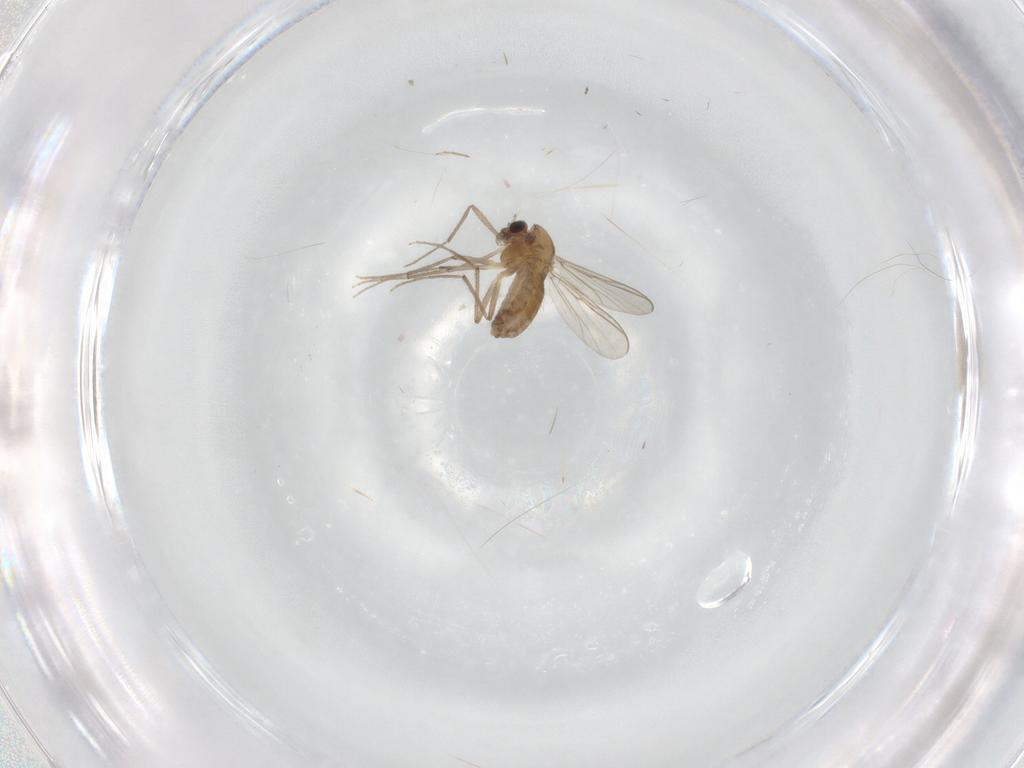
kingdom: Animalia
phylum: Arthropoda
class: Insecta
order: Diptera
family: Chironomidae
